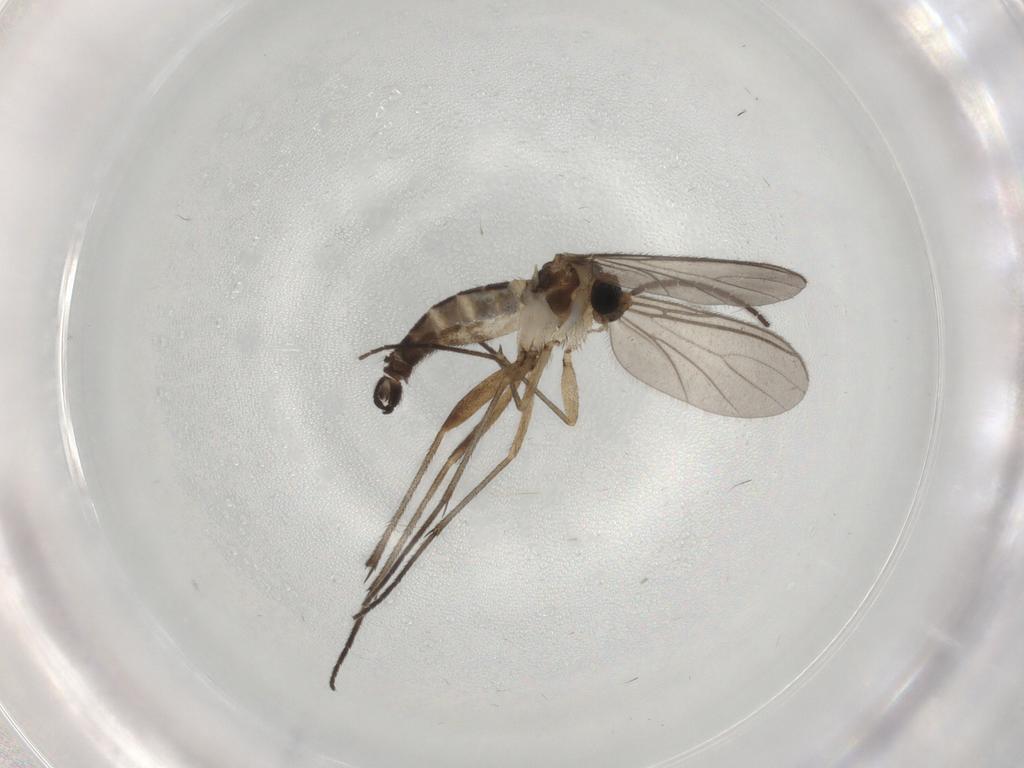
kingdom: Animalia
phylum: Arthropoda
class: Insecta
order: Diptera
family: Sciaridae
